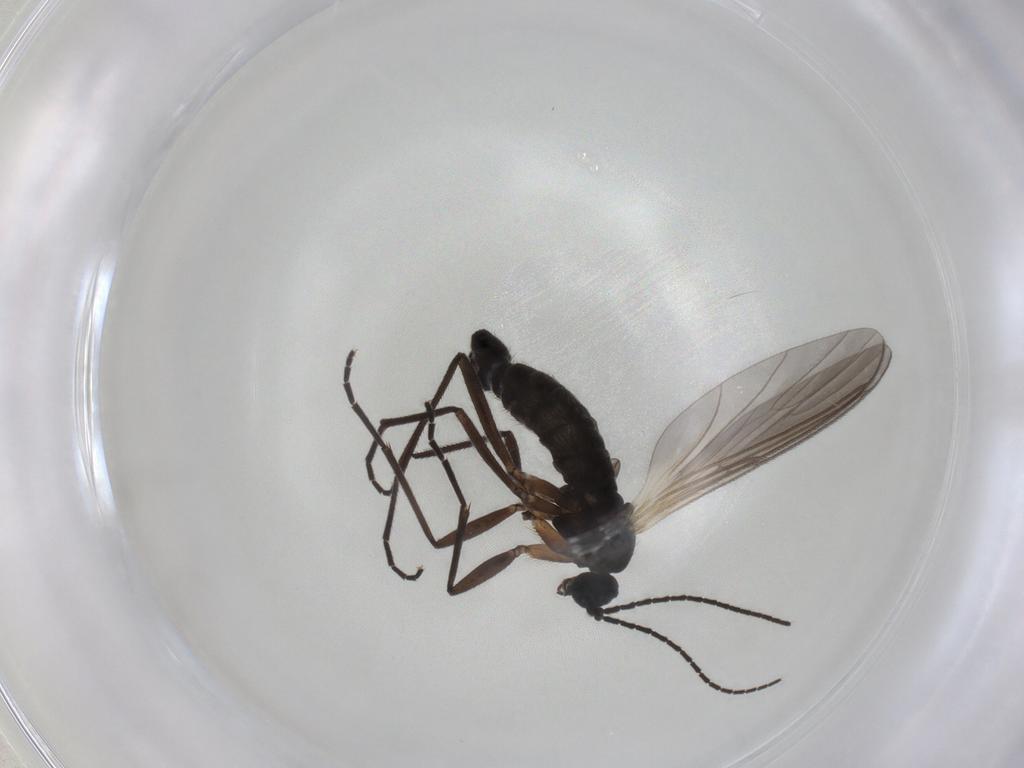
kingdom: Animalia
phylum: Arthropoda
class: Insecta
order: Diptera
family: Sciaridae
